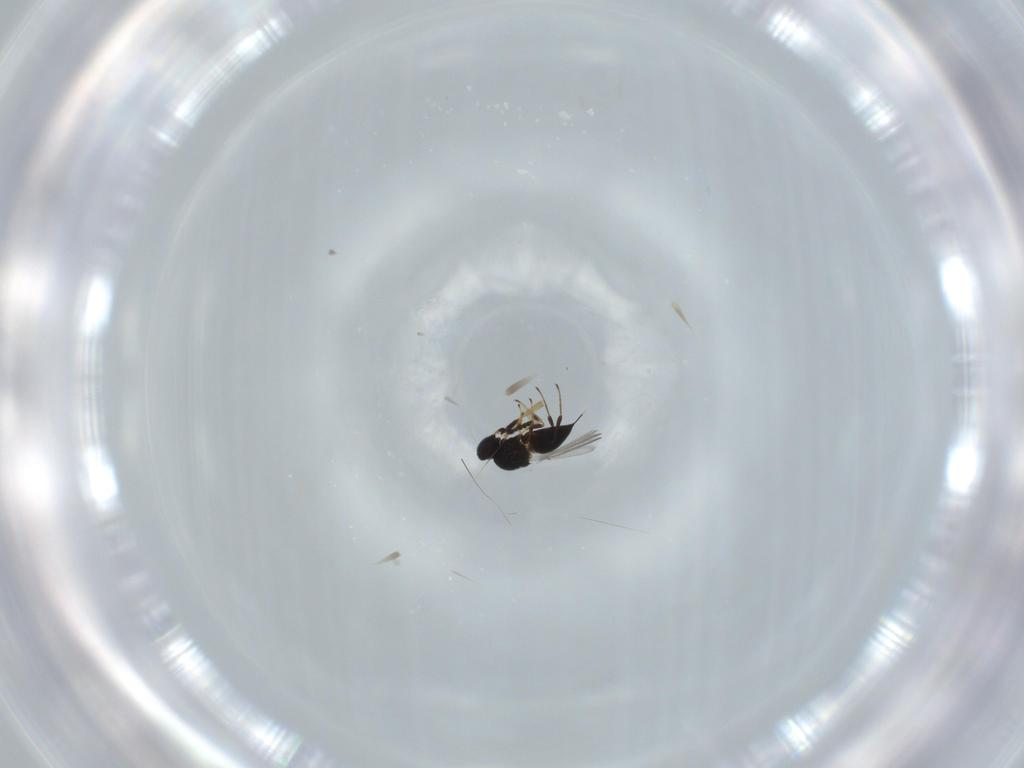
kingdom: Animalia
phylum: Arthropoda
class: Insecta
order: Hymenoptera
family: Platygastridae
